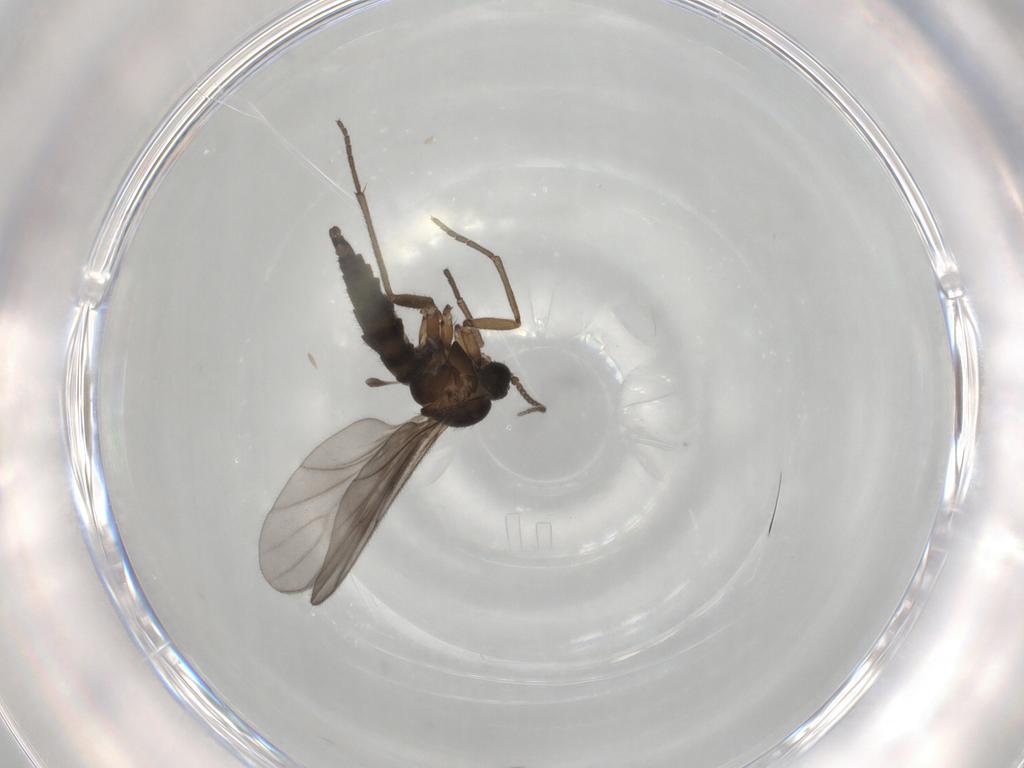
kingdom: Animalia
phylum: Arthropoda
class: Insecta
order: Diptera
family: Sciaridae
